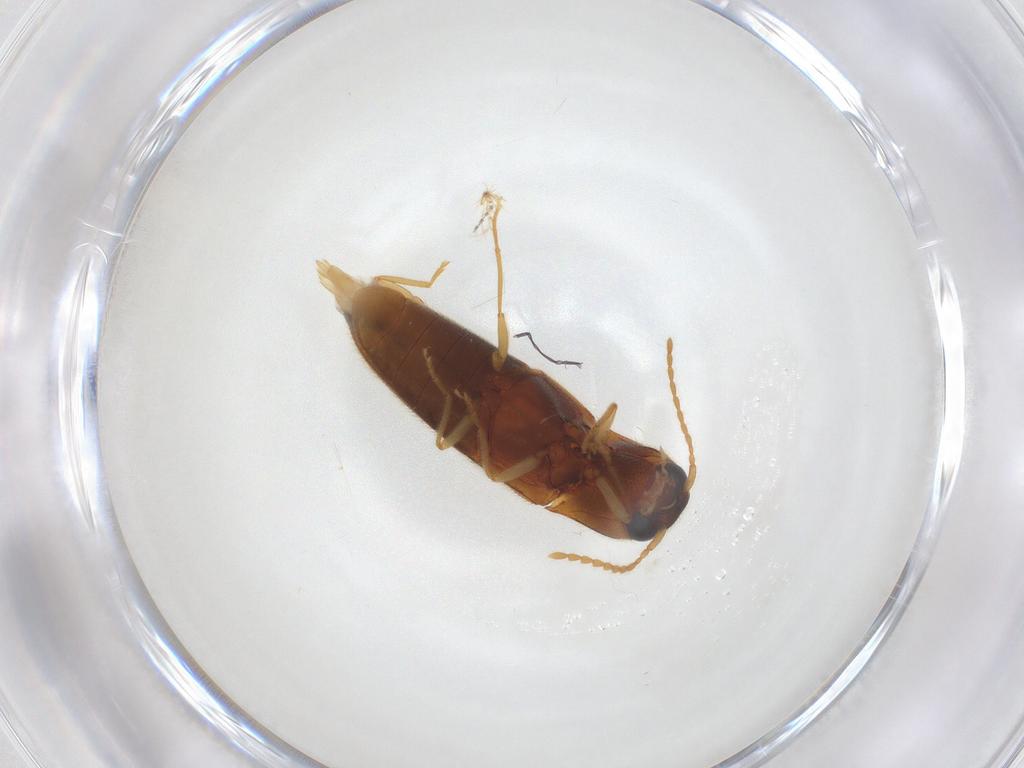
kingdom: Animalia
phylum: Arthropoda
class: Insecta
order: Coleoptera
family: Elateridae
